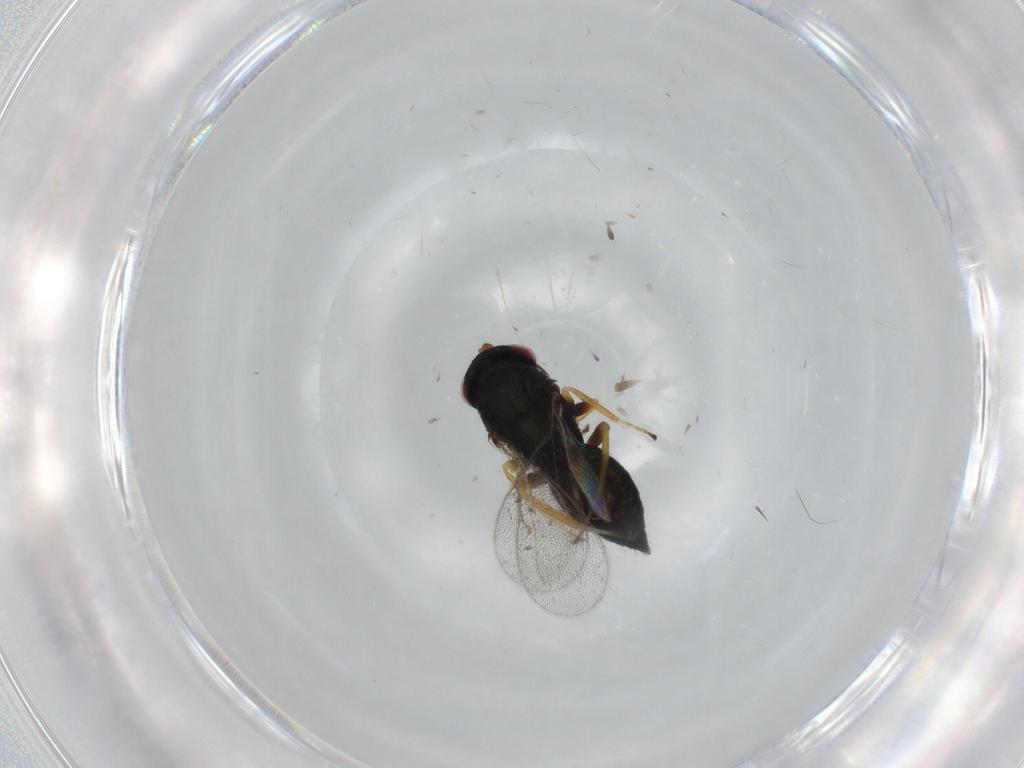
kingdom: Animalia
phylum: Arthropoda
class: Insecta
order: Hymenoptera
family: Eulophidae
